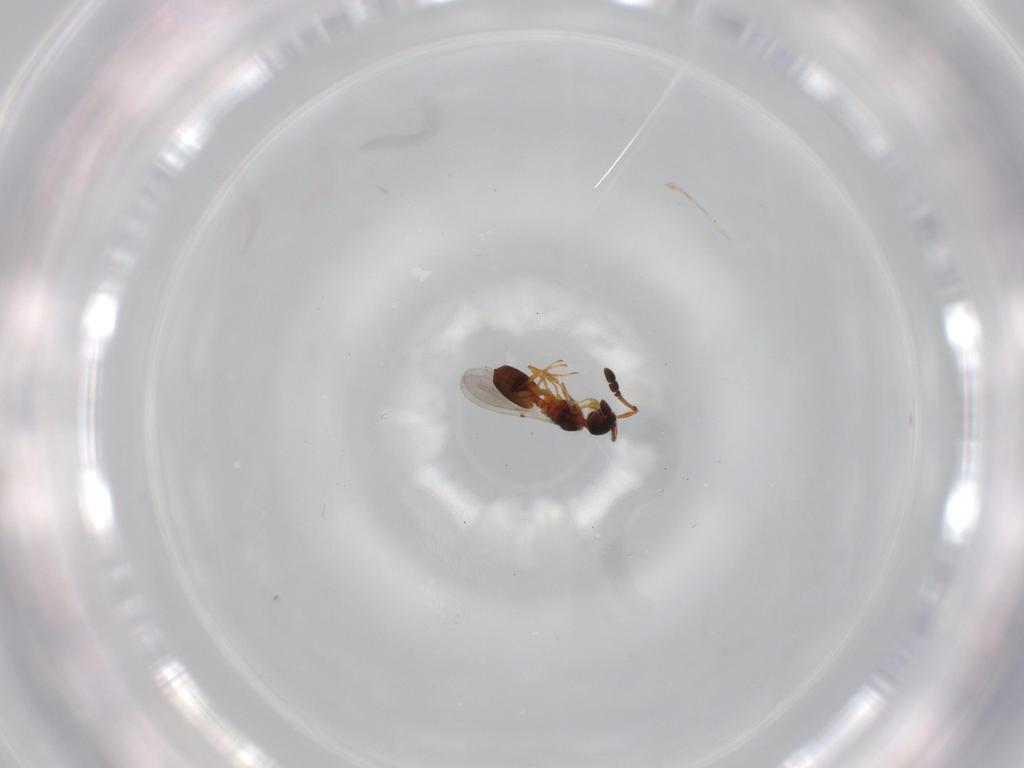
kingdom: Animalia
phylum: Arthropoda
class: Insecta
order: Hymenoptera
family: Diapriidae
